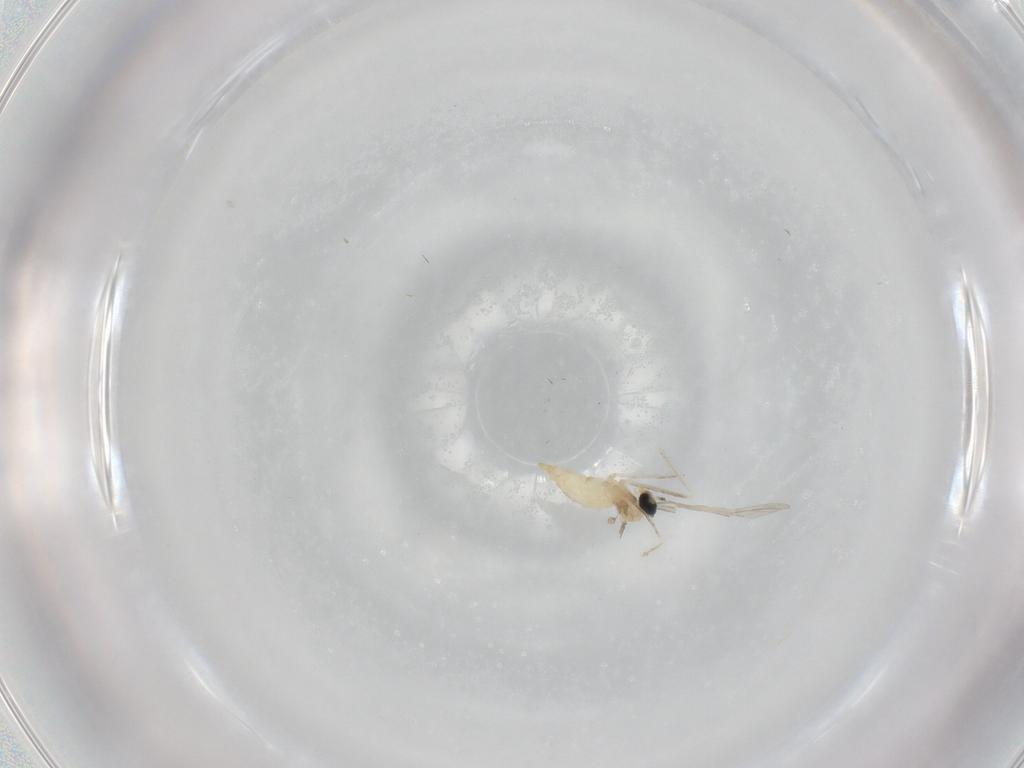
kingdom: Animalia
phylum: Arthropoda
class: Insecta
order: Diptera
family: Cecidomyiidae
